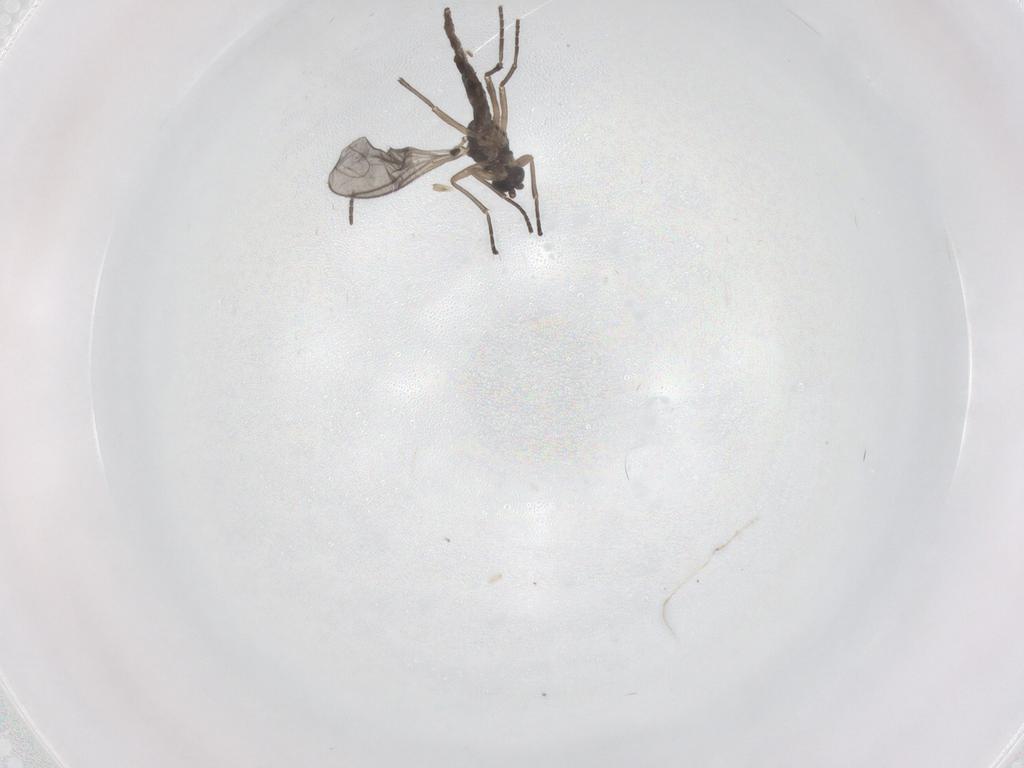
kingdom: Animalia
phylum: Arthropoda
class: Insecta
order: Diptera
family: Sciaridae
